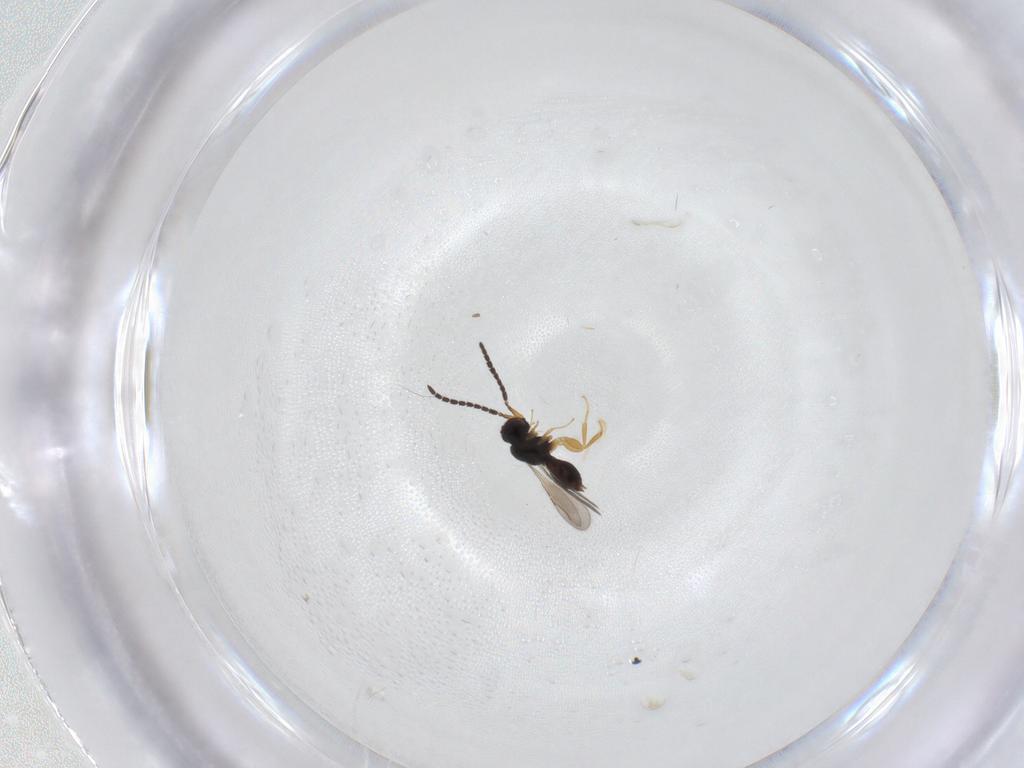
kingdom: Animalia
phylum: Arthropoda
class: Insecta
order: Hymenoptera
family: Ceraphronidae
